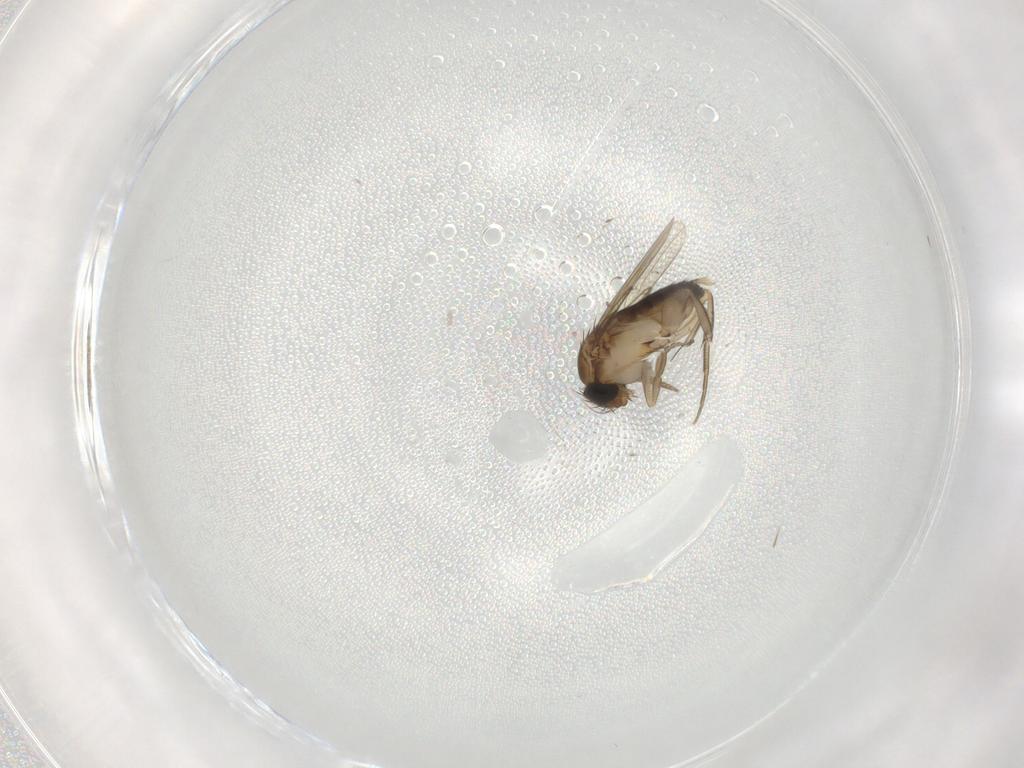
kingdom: Animalia
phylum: Arthropoda
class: Insecta
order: Diptera
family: Phoridae
